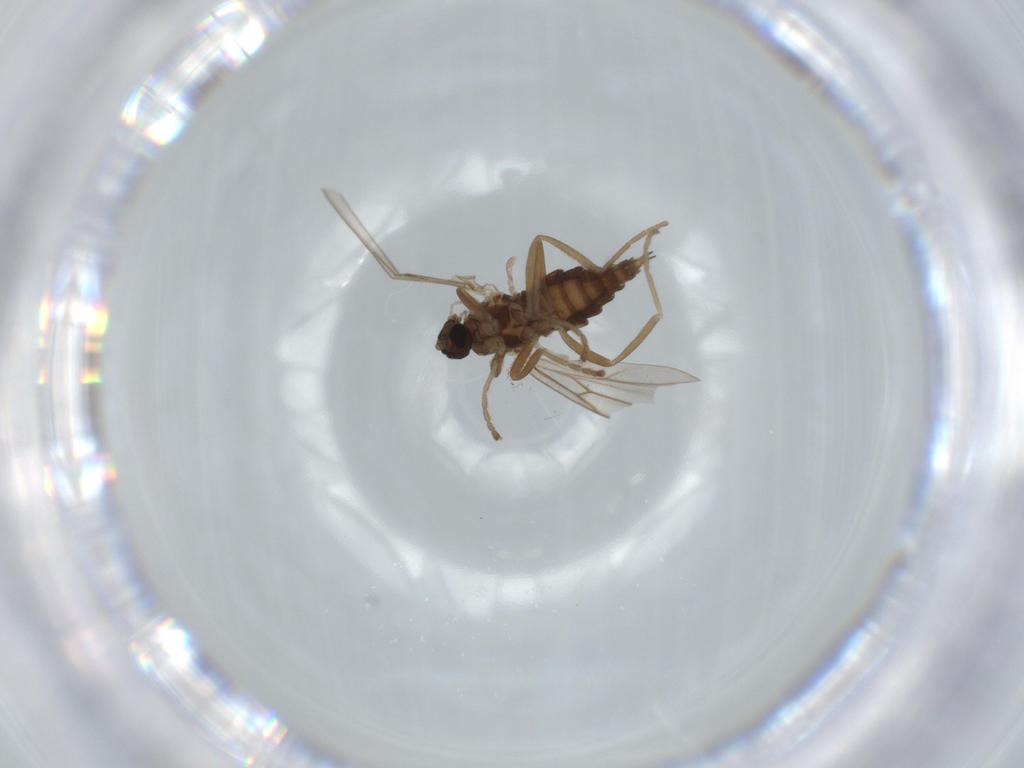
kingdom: Animalia
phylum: Arthropoda
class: Insecta
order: Diptera
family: Cecidomyiidae
